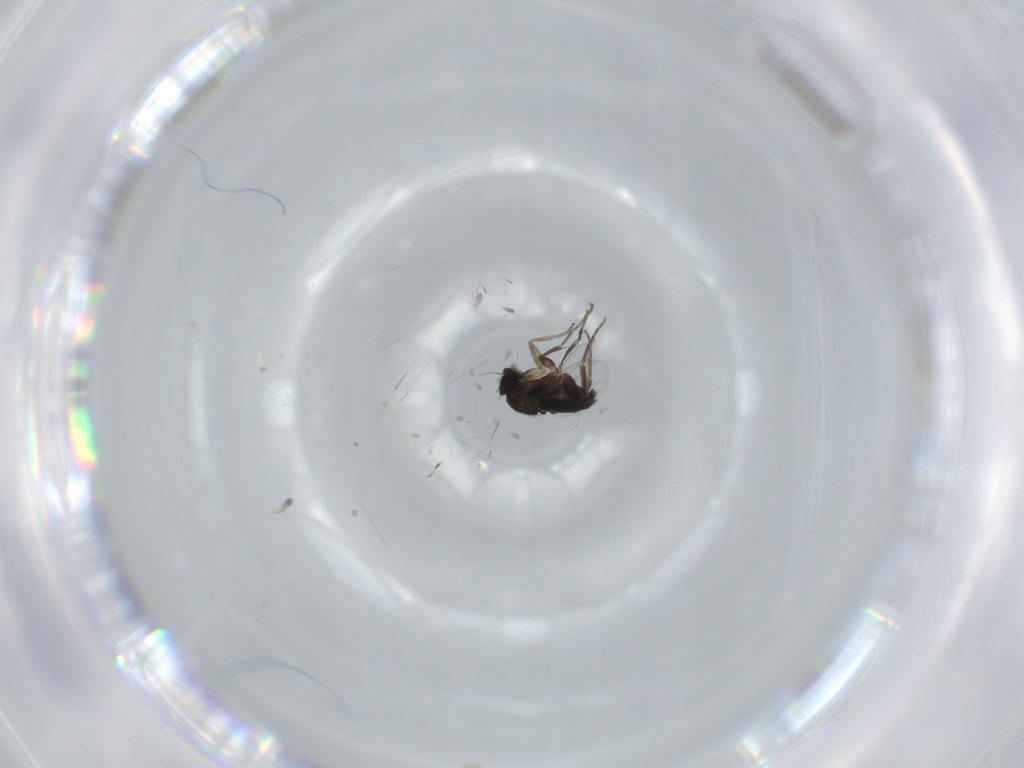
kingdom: Animalia
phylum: Arthropoda
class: Insecta
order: Diptera
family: Phoridae
